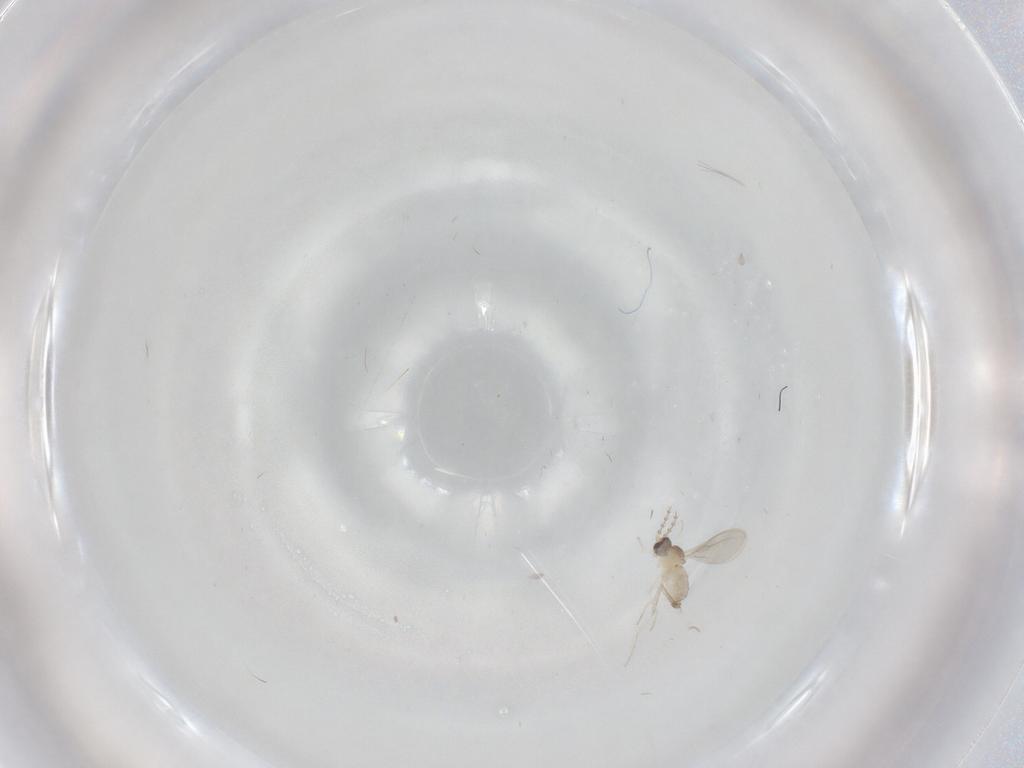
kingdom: Animalia
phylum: Arthropoda
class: Insecta
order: Diptera
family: Cecidomyiidae
